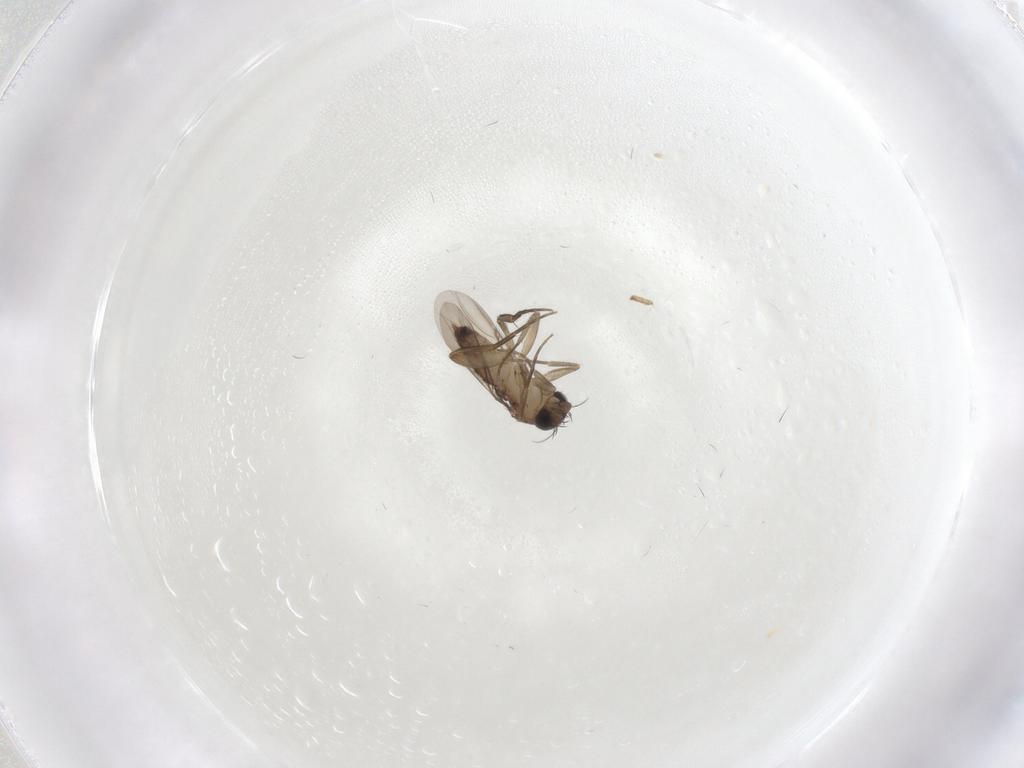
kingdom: Animalia
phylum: Arthropoda
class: Insecta
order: Diptera
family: Phoridae
